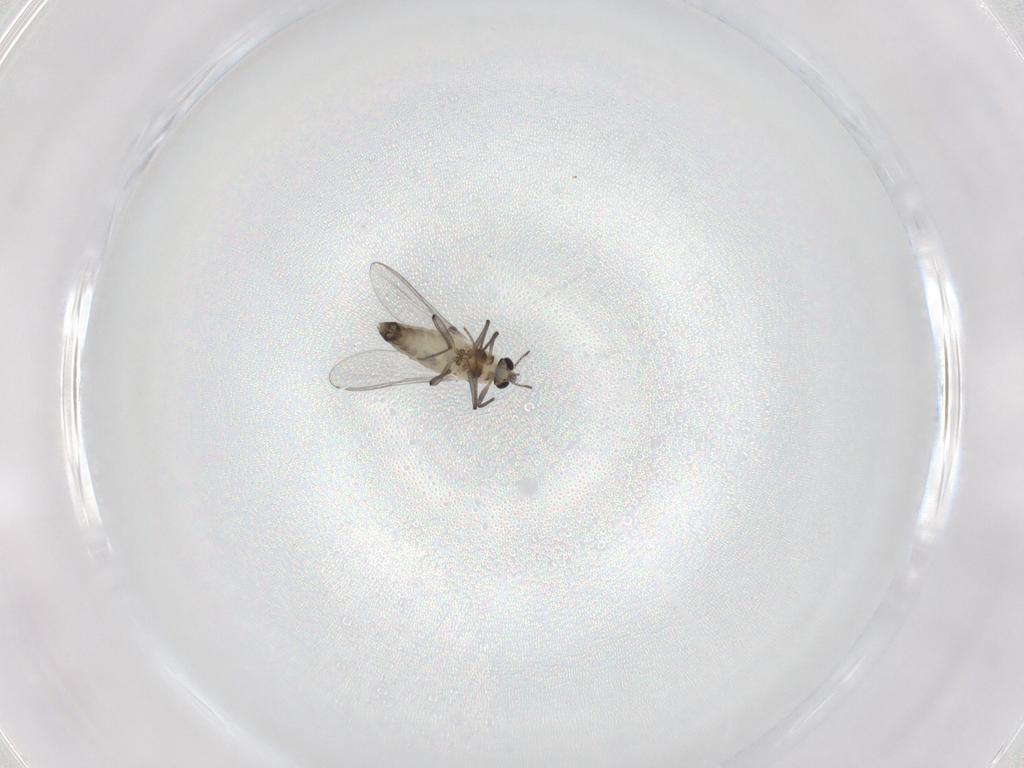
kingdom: Animalia
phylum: Arthropoda
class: Insecta
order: Diptera
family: Chironomidae
